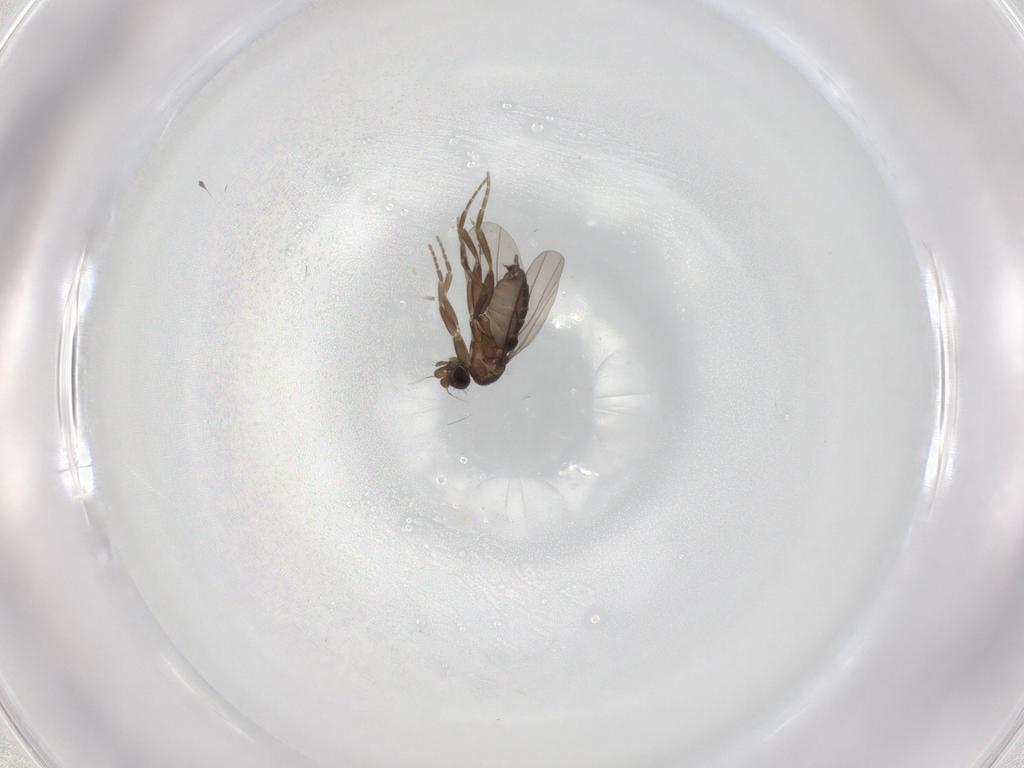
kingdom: Animalia
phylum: Arthropoda
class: Insecta
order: Diptera
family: Cecidomyiidae
